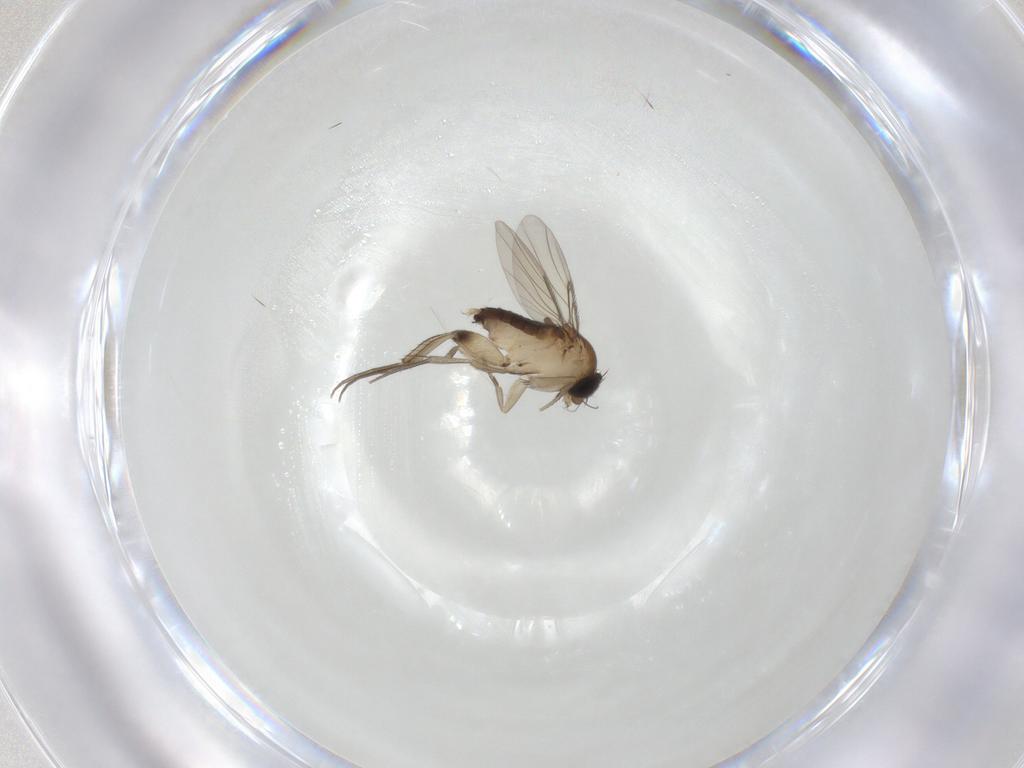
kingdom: Animalia
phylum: Arthropoda
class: Insecta
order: Diptera
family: Phoridae
